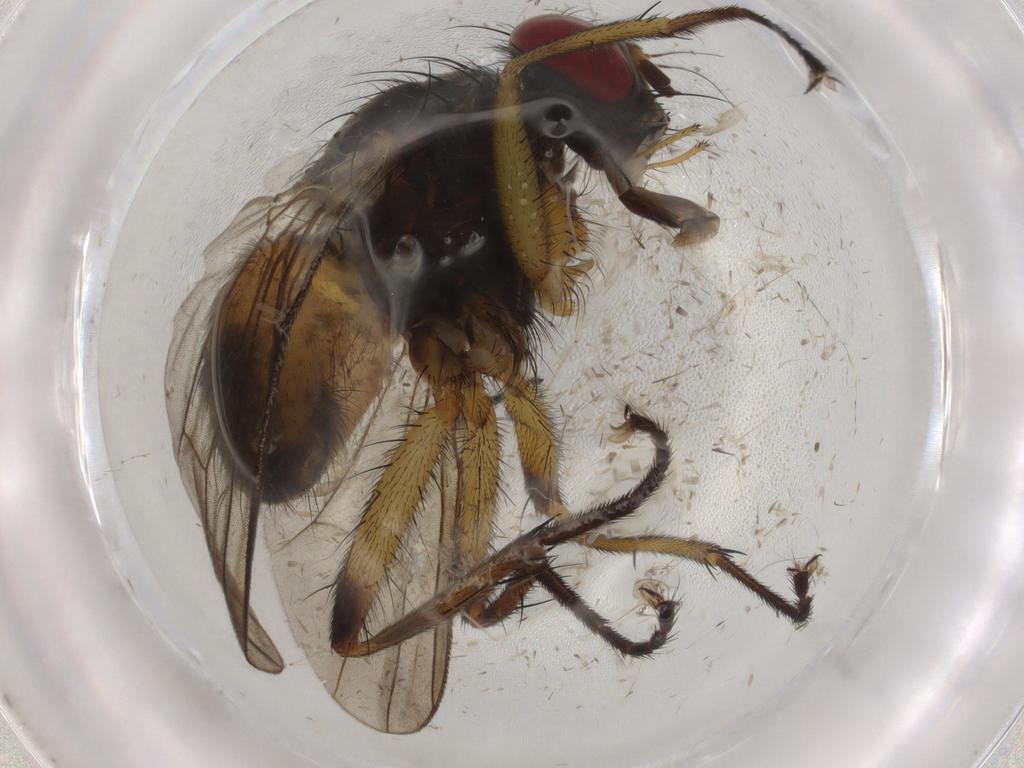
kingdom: Animalia
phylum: Arthropoda
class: Insecta
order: Diptera
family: Muscidae
